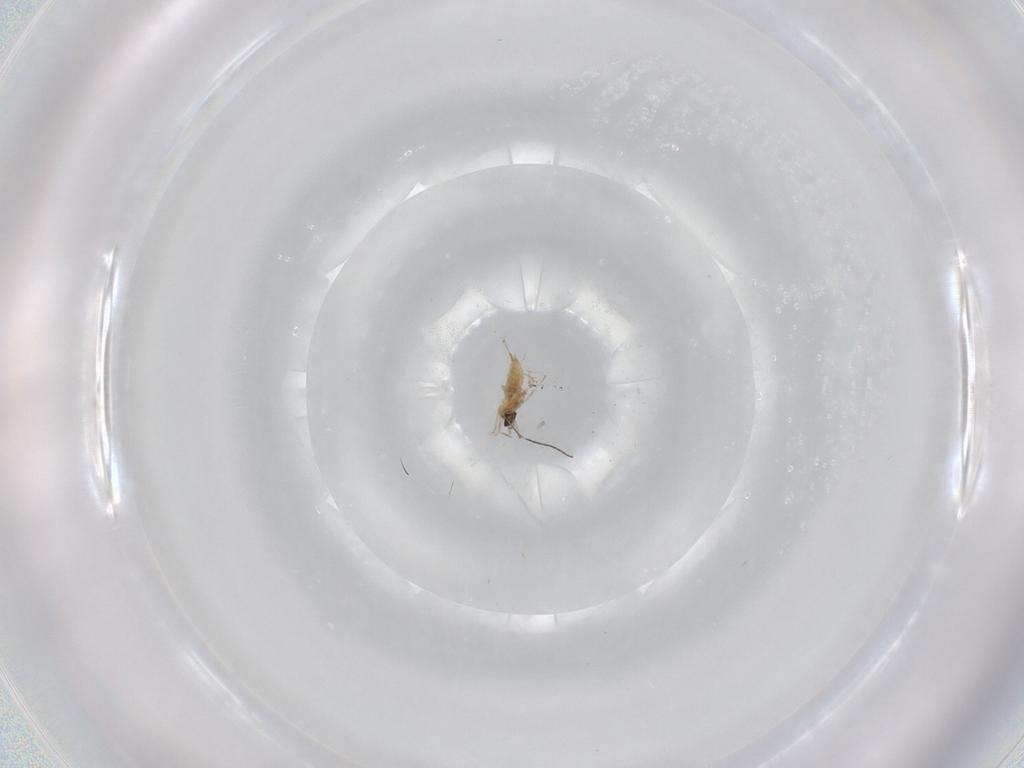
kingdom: Animalia
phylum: Arthropoda
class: Insecta
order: Diptera
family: Cecidomyiidae
